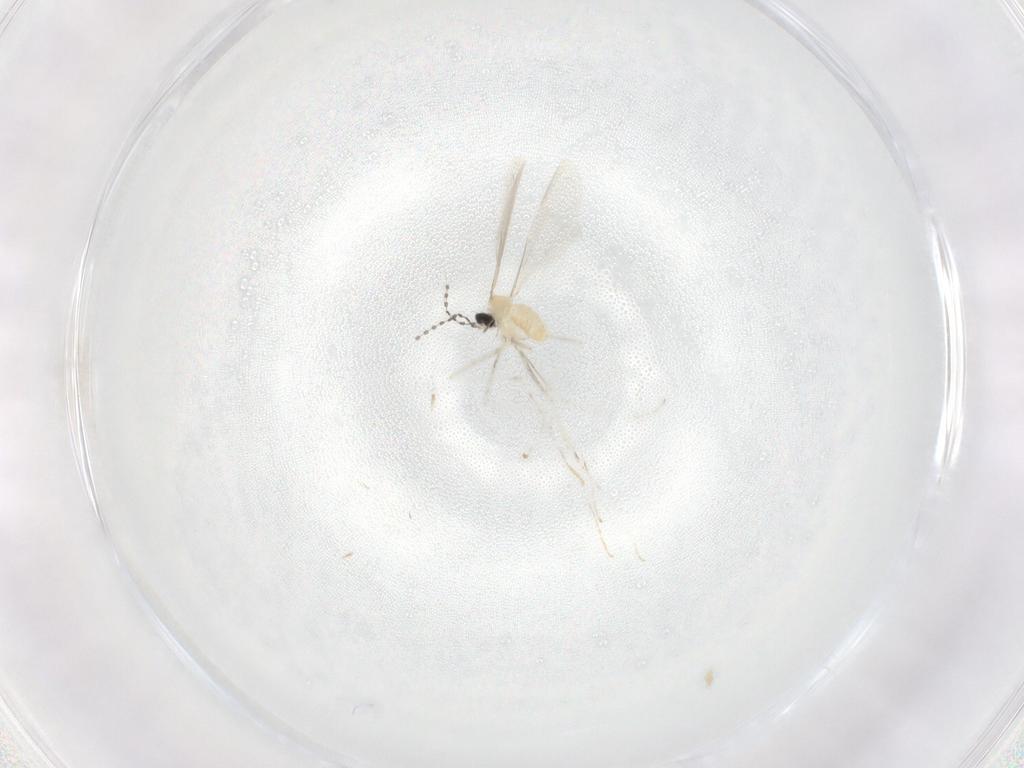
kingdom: Animalia
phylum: Arthropoda
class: Insecta
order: Diptera
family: Cecidomyiidae
